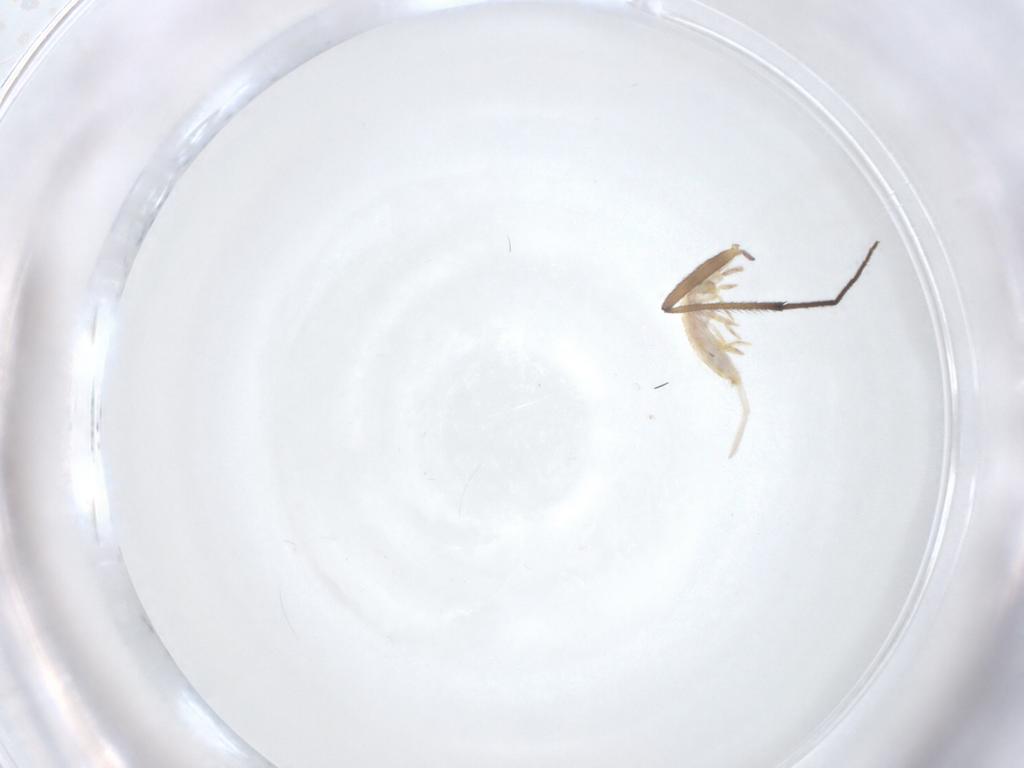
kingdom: Animalia
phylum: Arthropoda
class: Collembola
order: Entomobryomorpha
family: Entomobryidae
